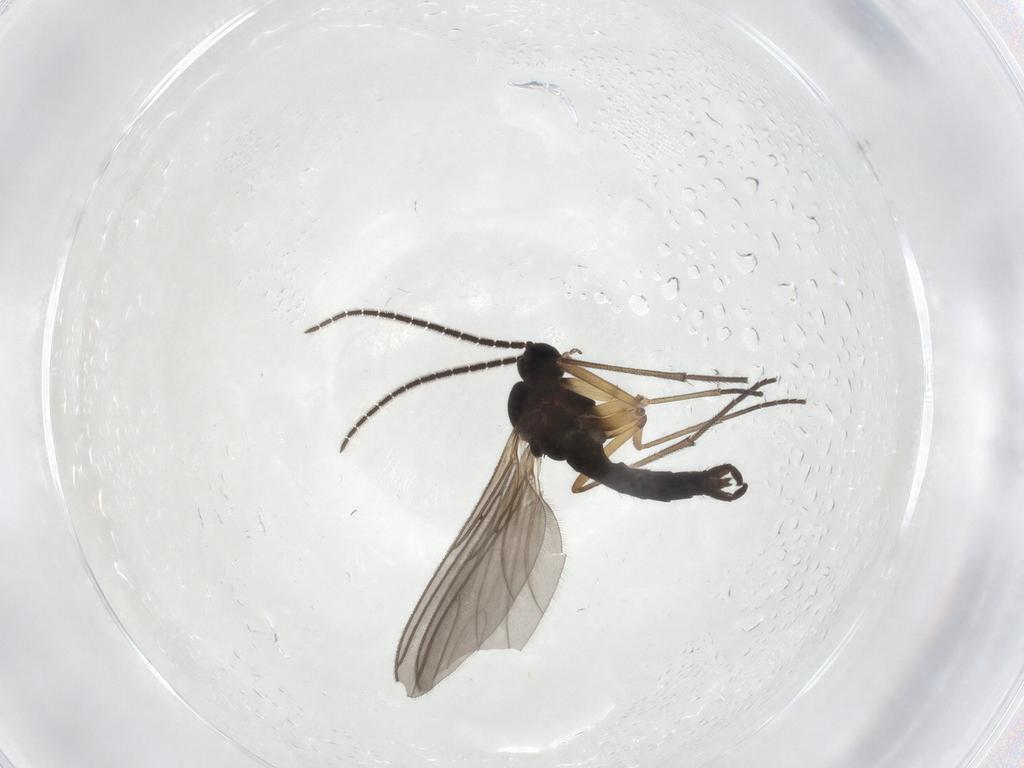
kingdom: Animalia
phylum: Arthropoda
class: Insecta
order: Diptera
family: Sciaridae
